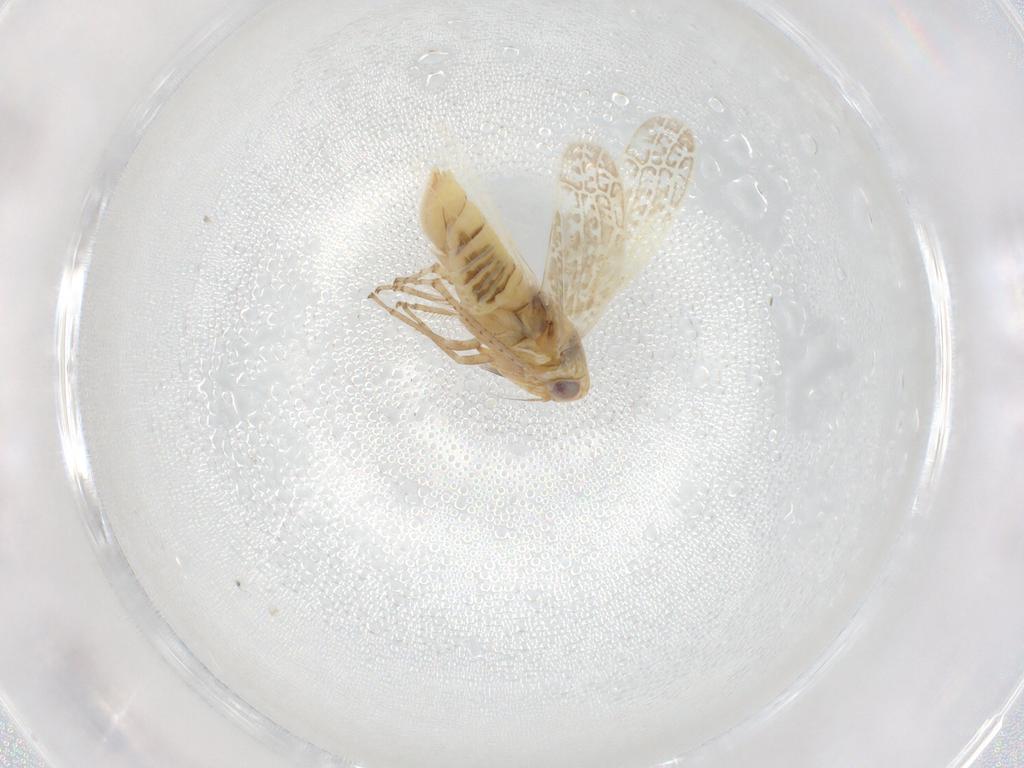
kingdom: Animalia
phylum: Arthropoda
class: Insecta
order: Hemiptera
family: Cicadellidae
